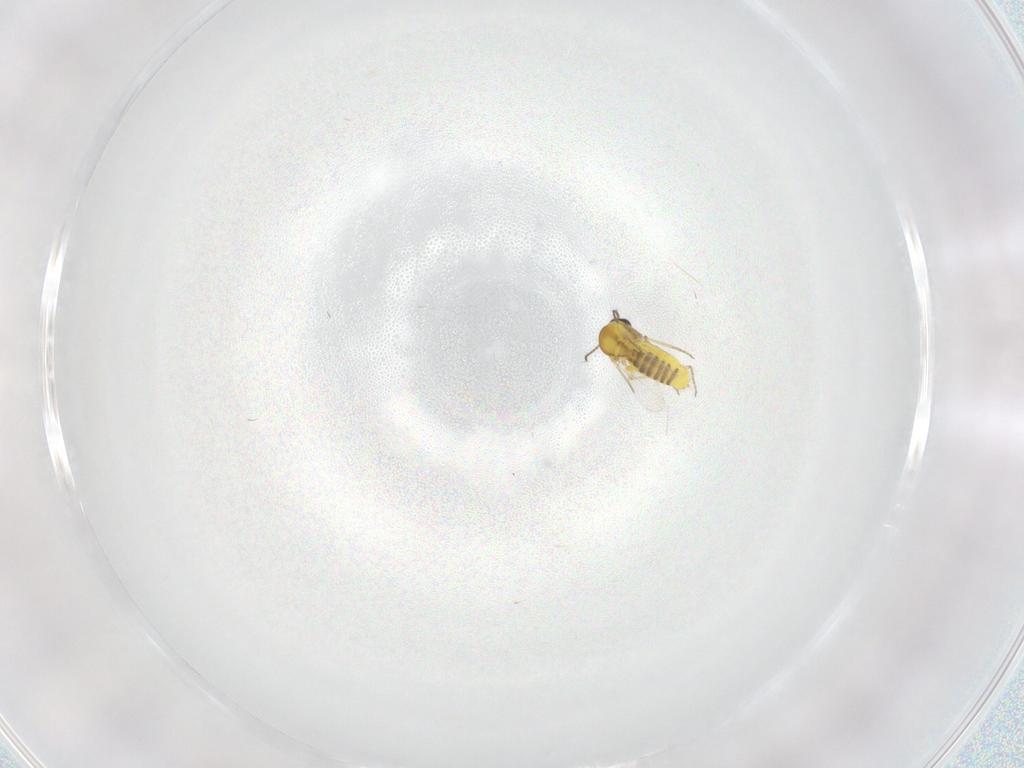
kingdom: Animalia
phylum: Arthropoda
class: Insecta
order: Diptera
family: Ceratopogonidae
